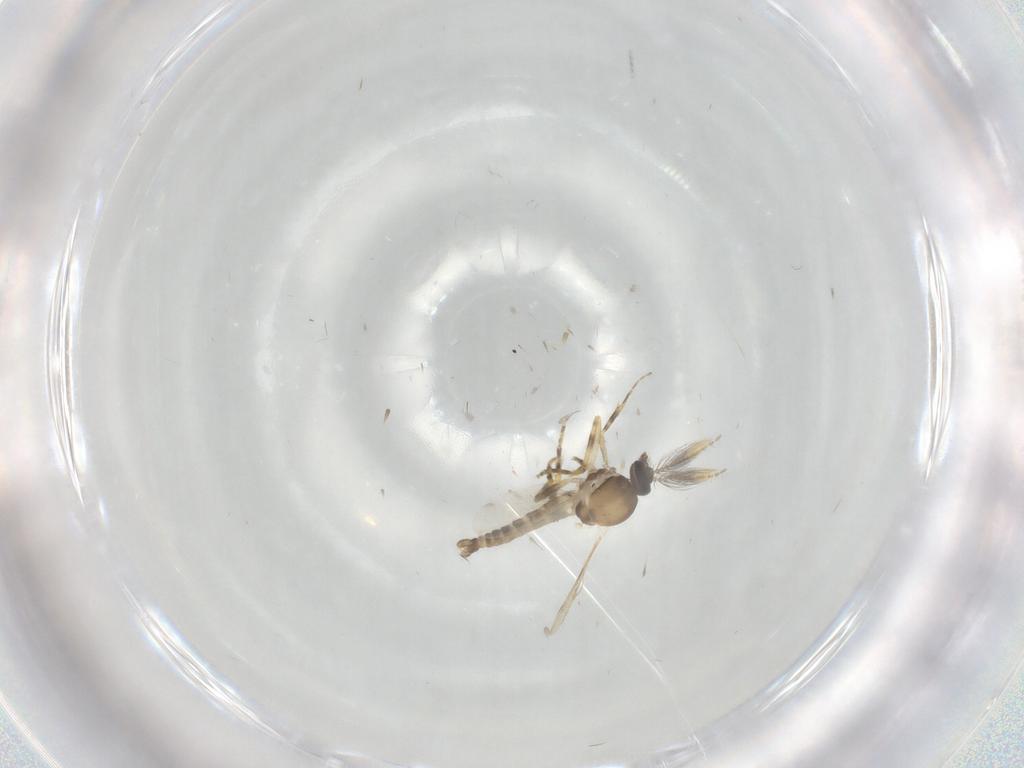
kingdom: Animalia
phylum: Arthropoda
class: Insecta
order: Diptera
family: Ceratopogonidae
